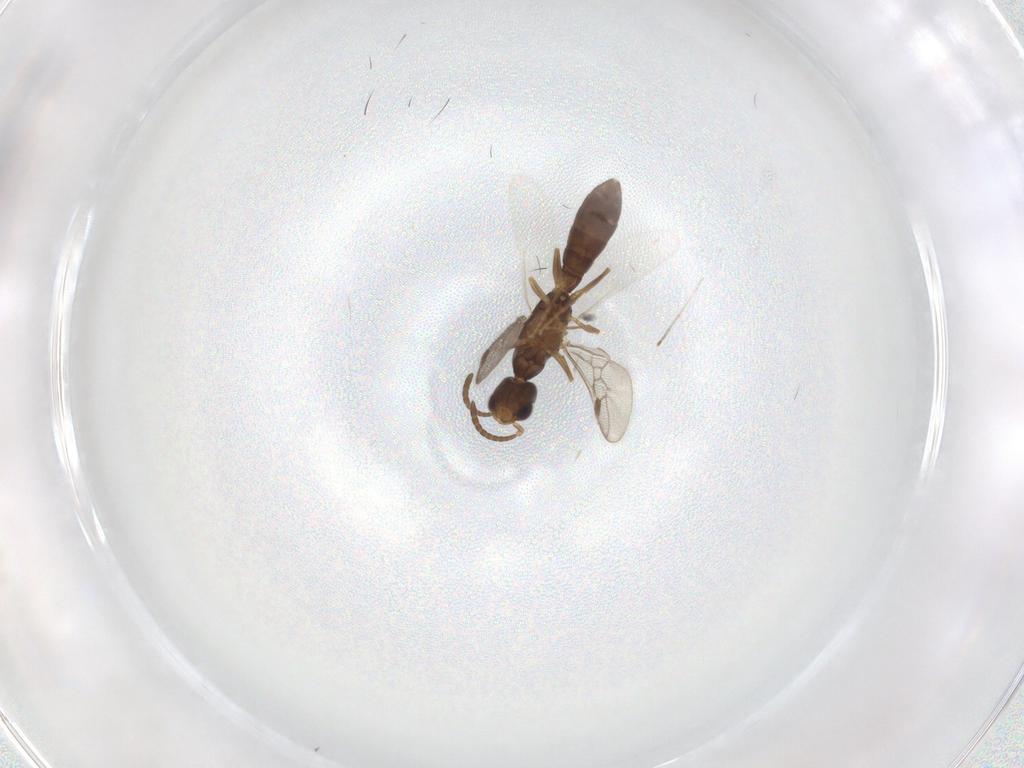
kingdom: Animalia
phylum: Arthropoda
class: Insecta
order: Hymenoptera
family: Formicidae
